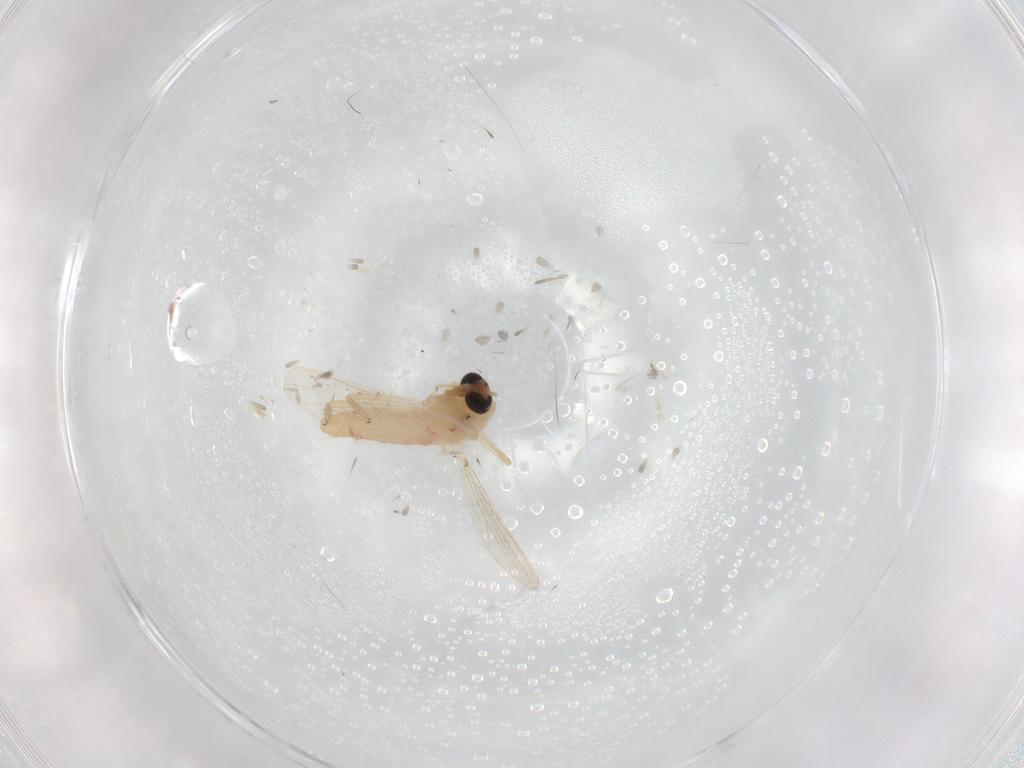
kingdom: Animalia
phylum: Arthropoda
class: Insecta
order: Diptera
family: Chironomidae
